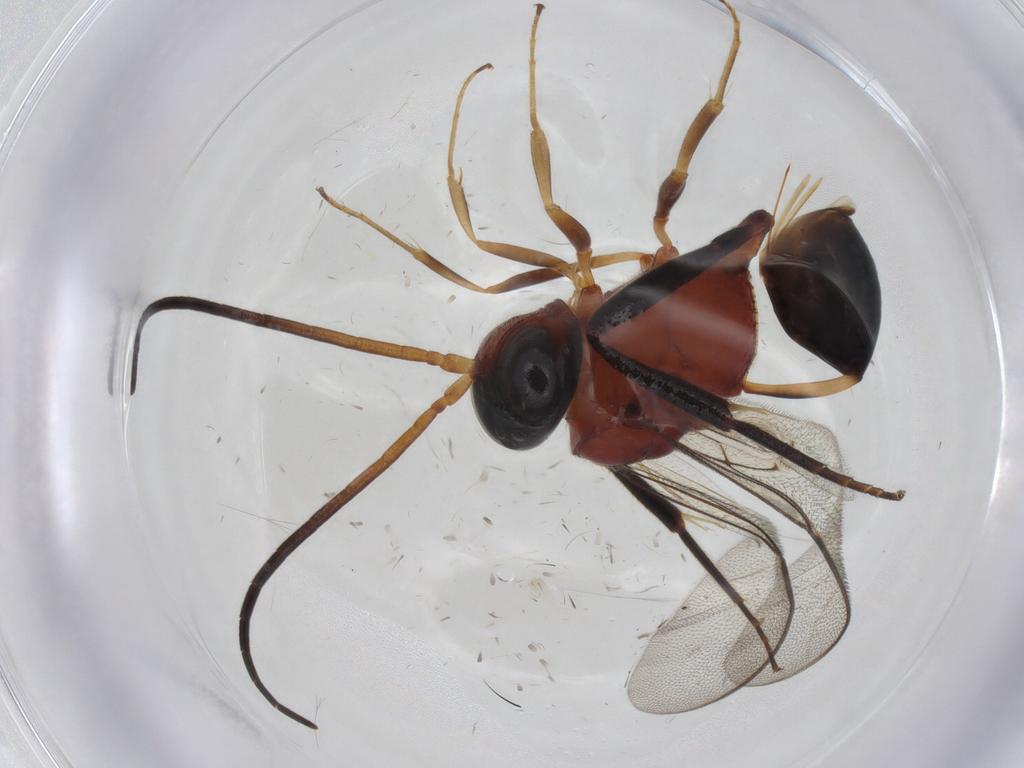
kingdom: Animalia
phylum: Arthropoda
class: Insecta
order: Hymenoptera
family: Evaniidae
